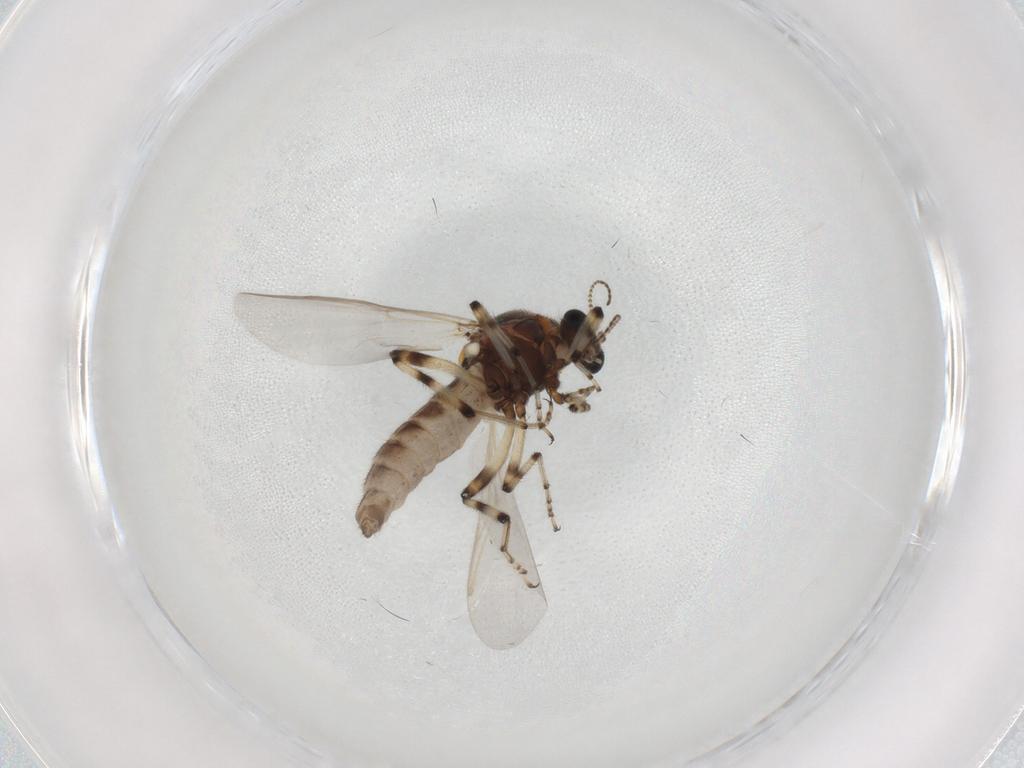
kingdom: Animalia
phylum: Arthropoda
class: Insecta
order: Diptera
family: Ceratopogonidae
